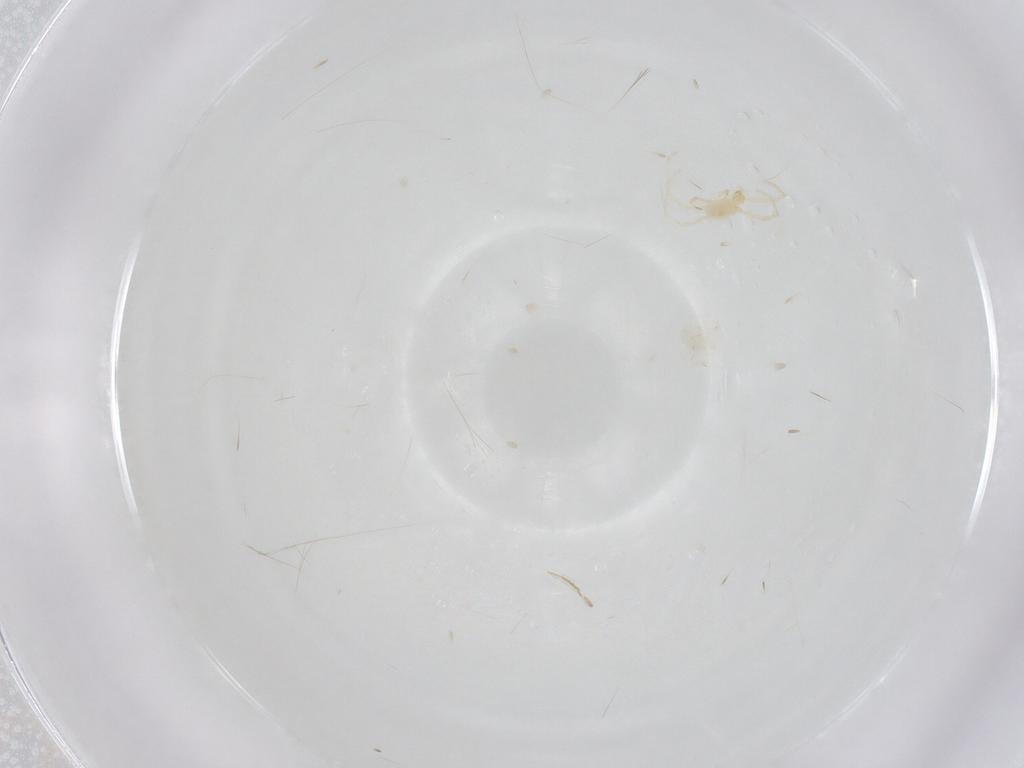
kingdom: Animalia
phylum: Arthropoda
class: Arachnida
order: Trombidiformes
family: Erythraeidae
